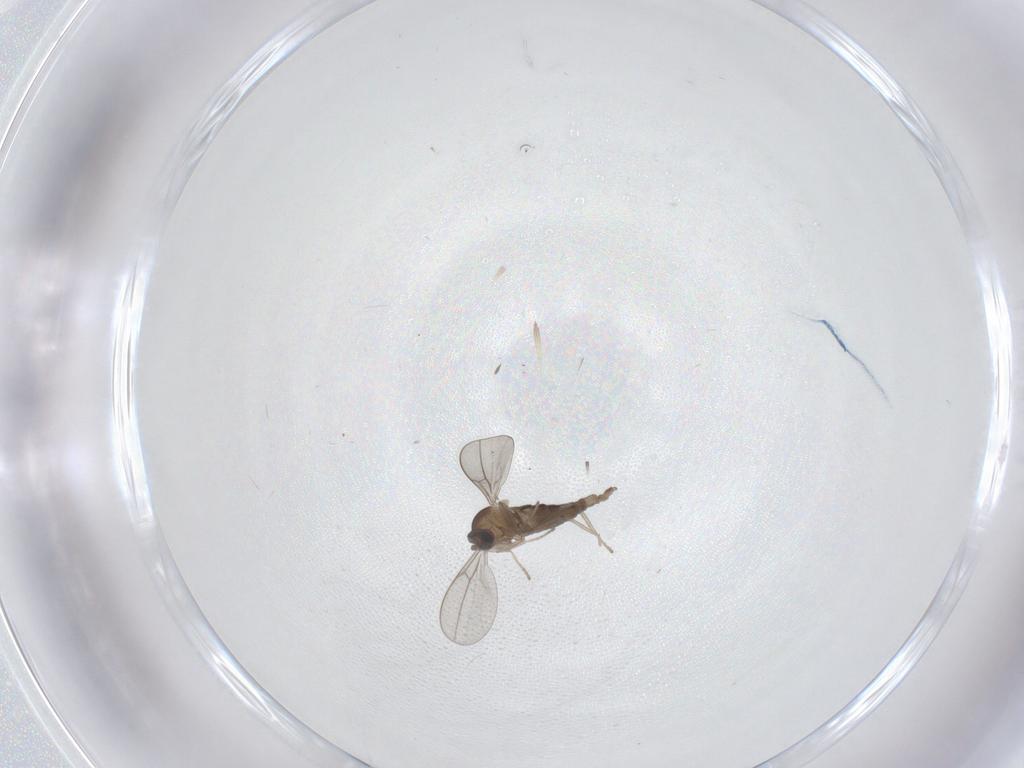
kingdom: Animalia
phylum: Arthropoda
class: Insecta
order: Diptera
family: Cecidomyiidae
